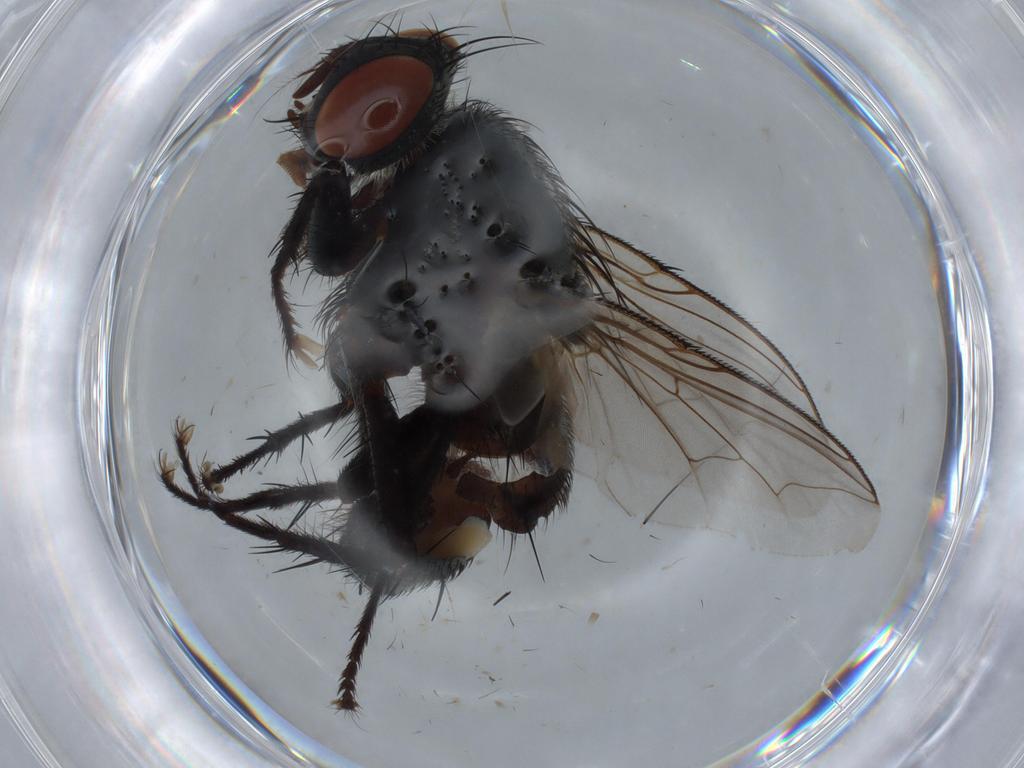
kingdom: Animalia
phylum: Arthropoda
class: Insecta
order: Diptera
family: Sarcophagidae
